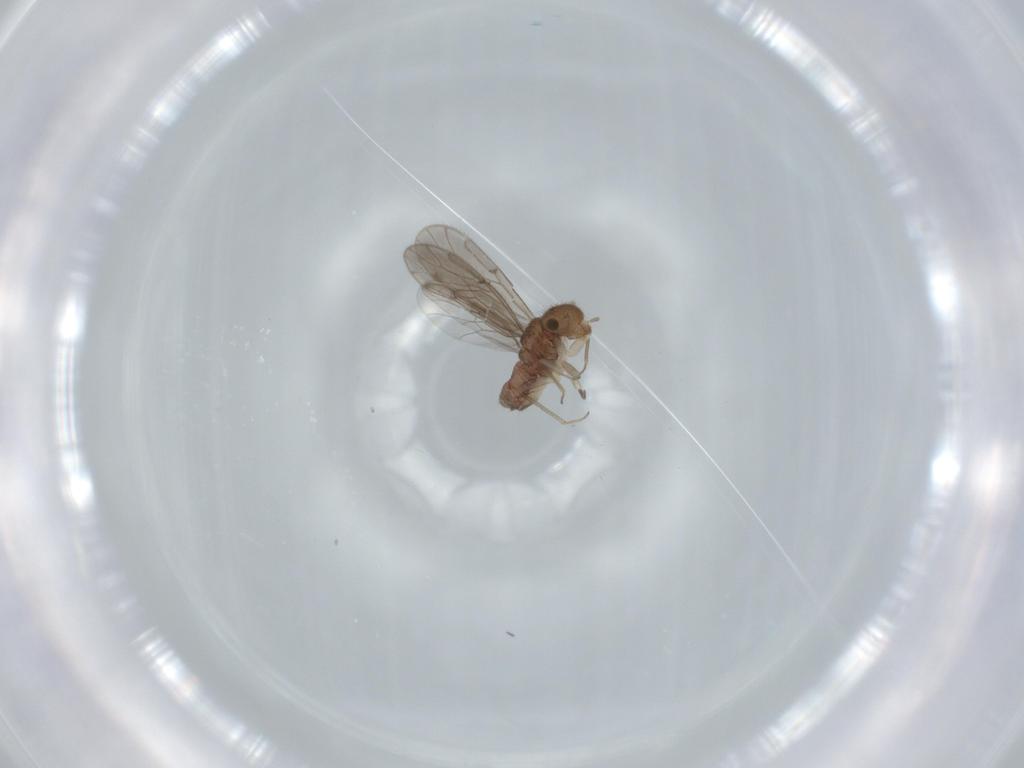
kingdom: Animalia
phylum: Arthropoda
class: Insecta
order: Psocodea
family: Ectopsocidae
